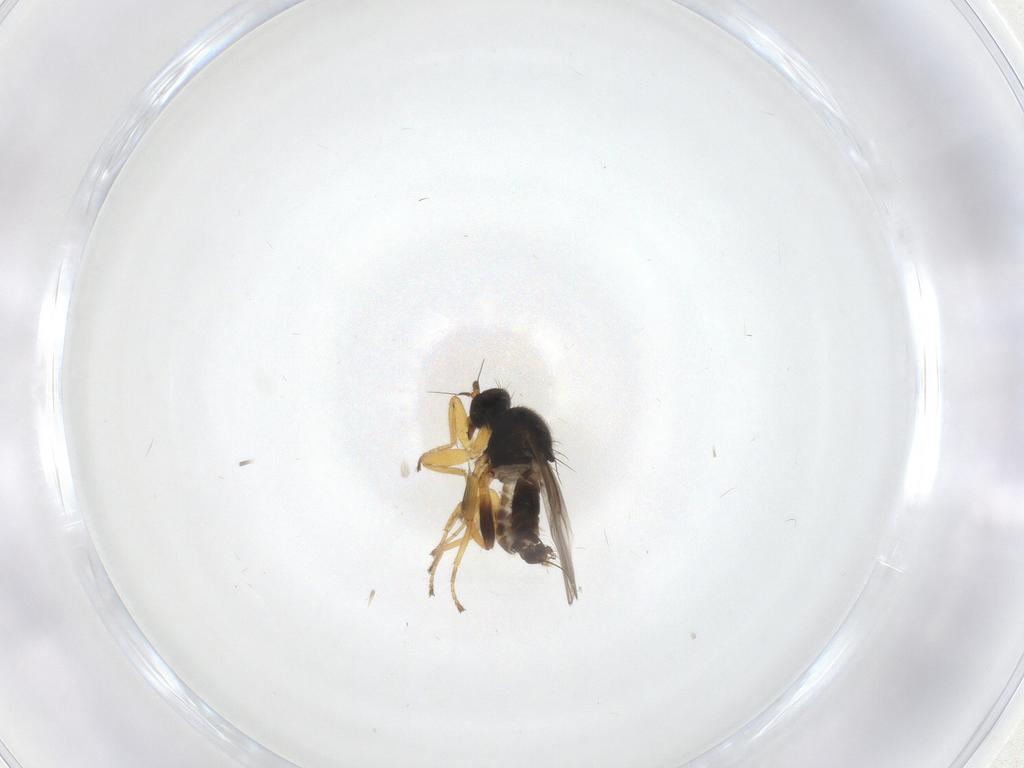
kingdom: Animalia
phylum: Arthropoda
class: Insecta
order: Diptera
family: Hybotidae
